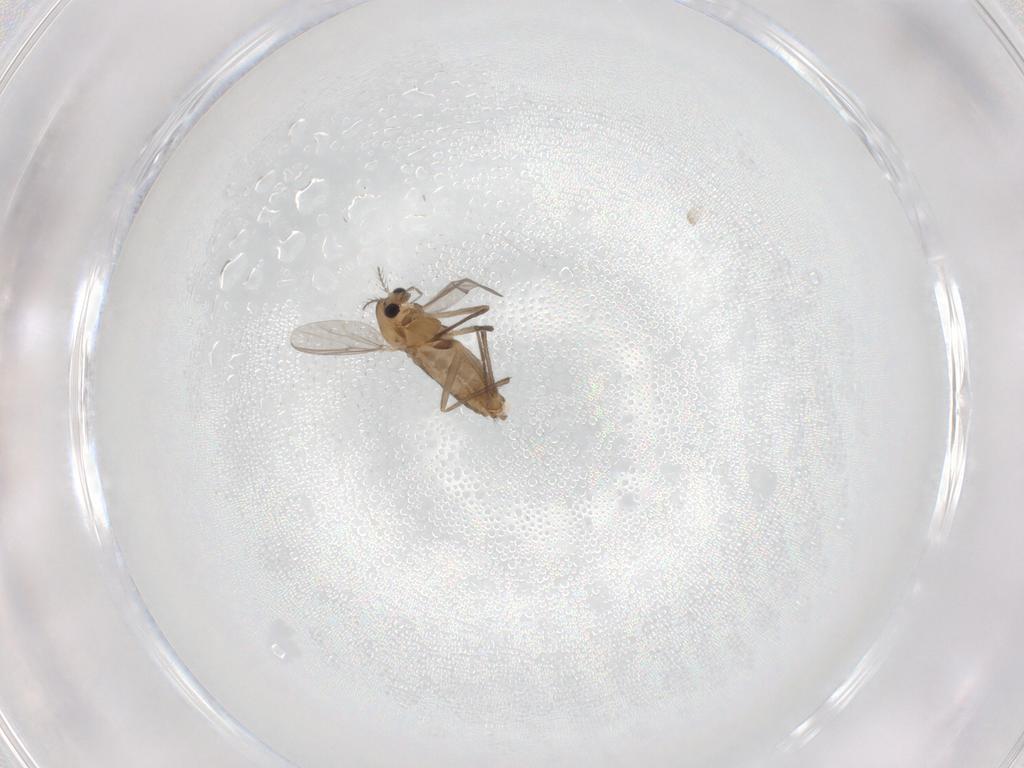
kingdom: Animalia
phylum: Arthropoda
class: Insecta
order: Diptera
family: Chironomidae
